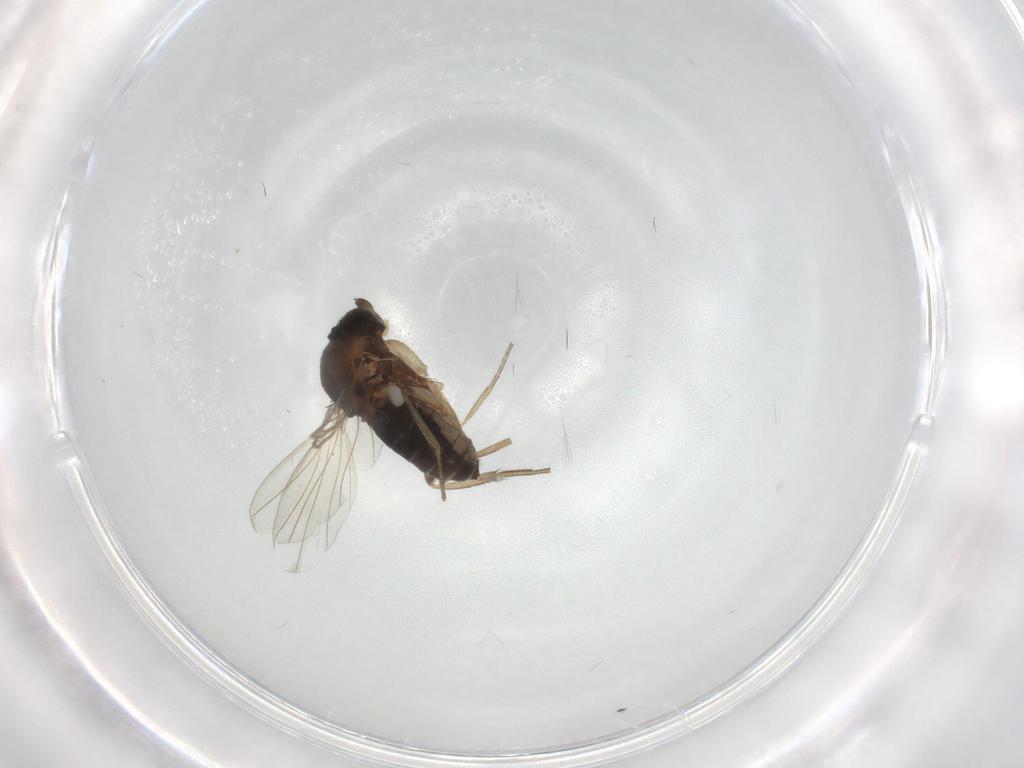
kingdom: Animalia
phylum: Arthropoda
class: Insecta
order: Diptera
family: Phoridae
